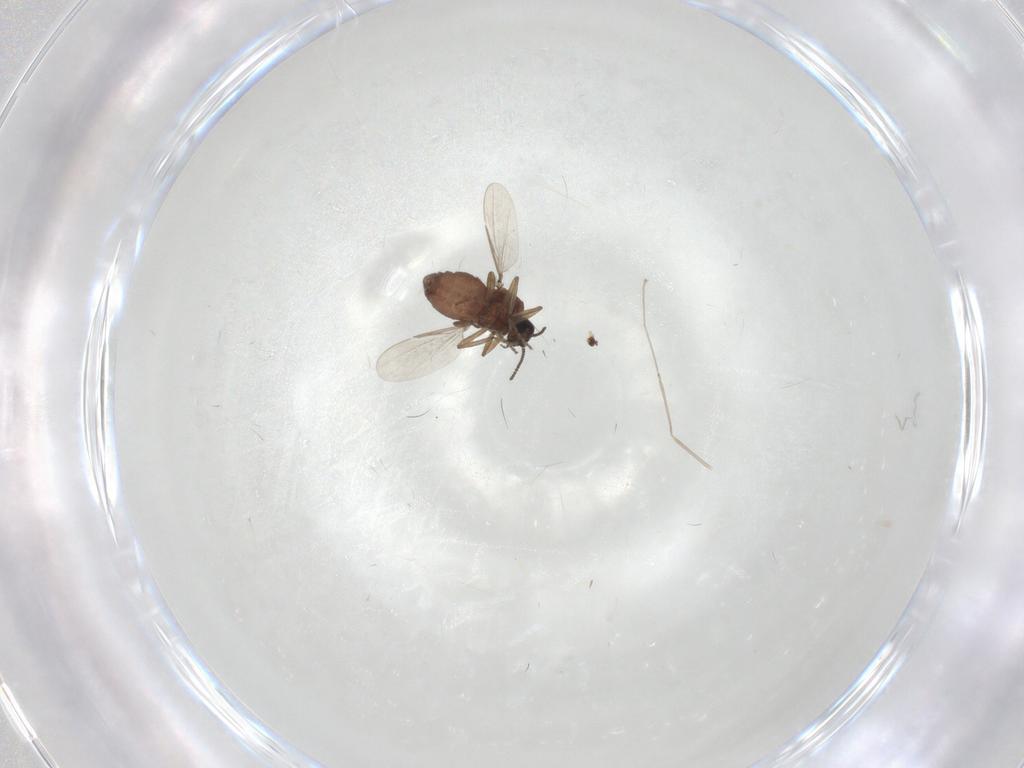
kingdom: Animalia
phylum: Arthropoda
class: Insecta
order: Diptera
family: Ceratopogonidae
